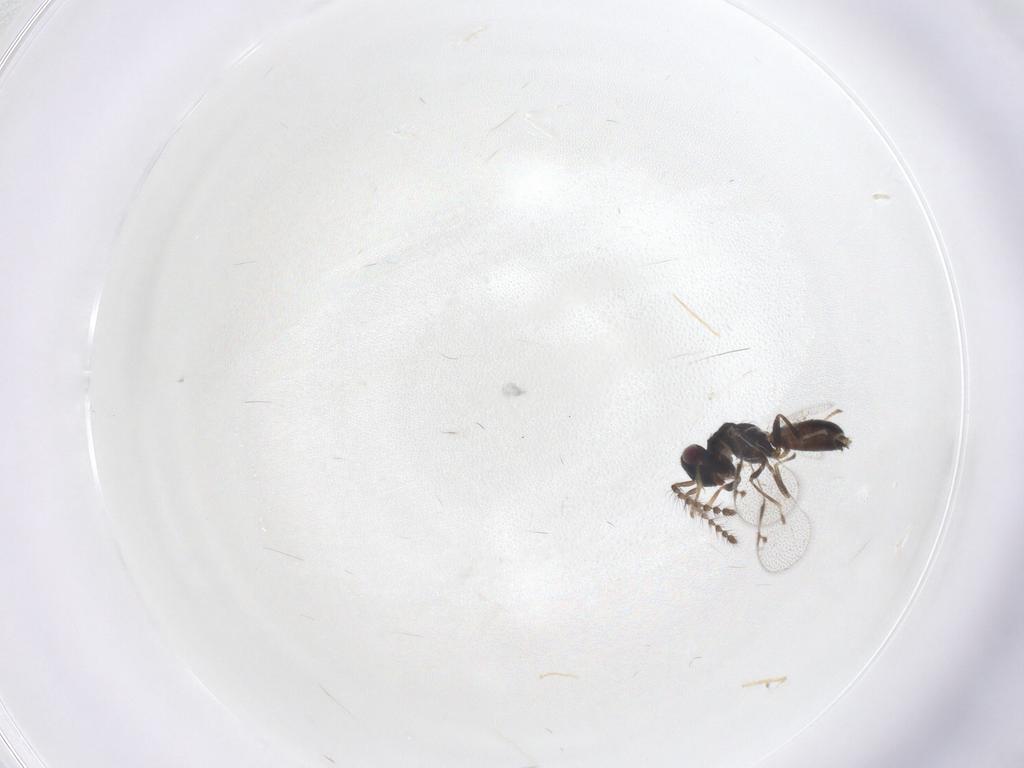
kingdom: Animalia
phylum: Arthropoda
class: Insecta
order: Hymenoptera
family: Pirenidae
